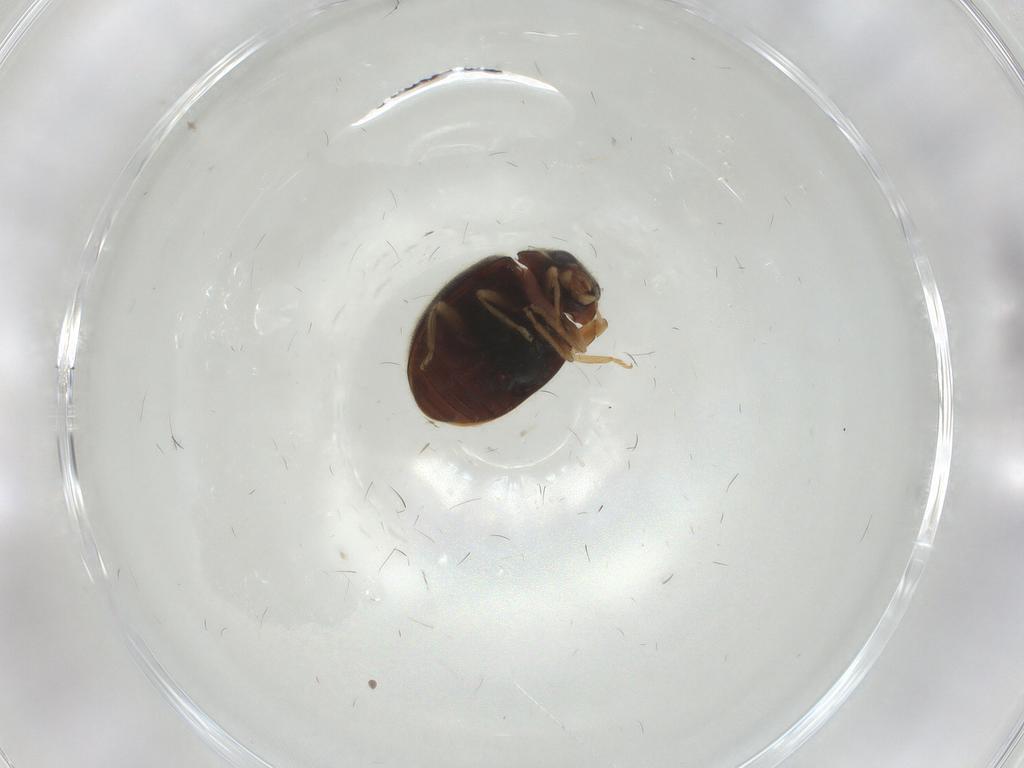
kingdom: Animalia
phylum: Arthropoda
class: Insecta
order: Coleoptera
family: Coccinellidae
